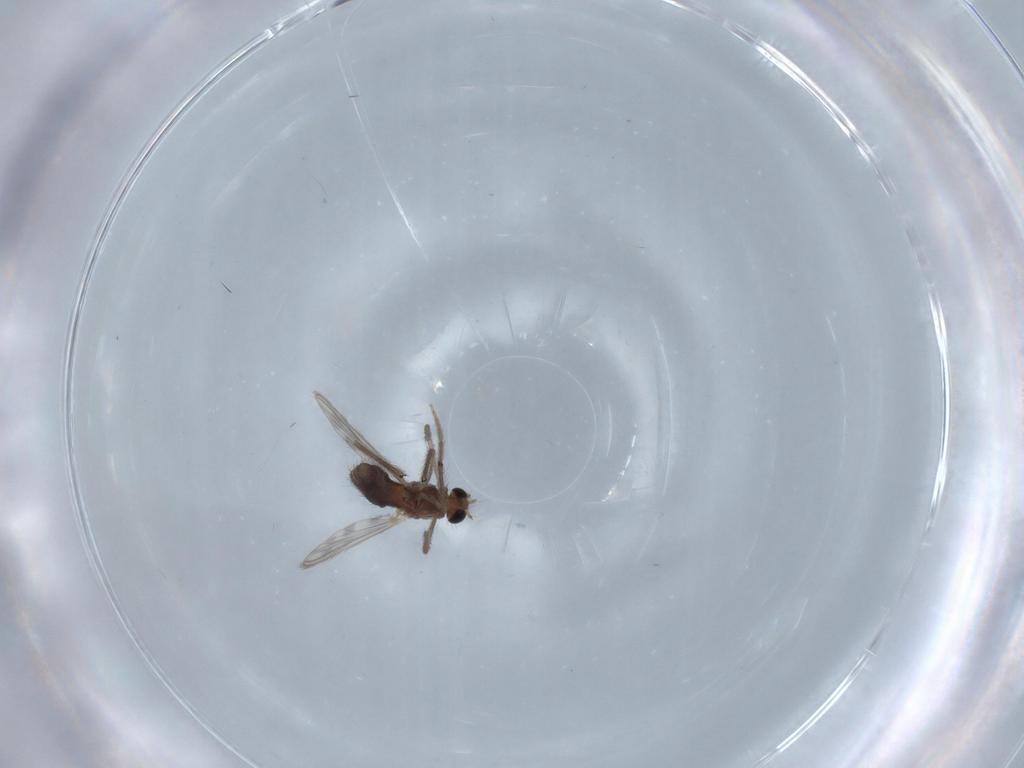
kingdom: Animalia
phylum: Arthropoda
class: Insecta
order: Diptera
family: Chironomidae
